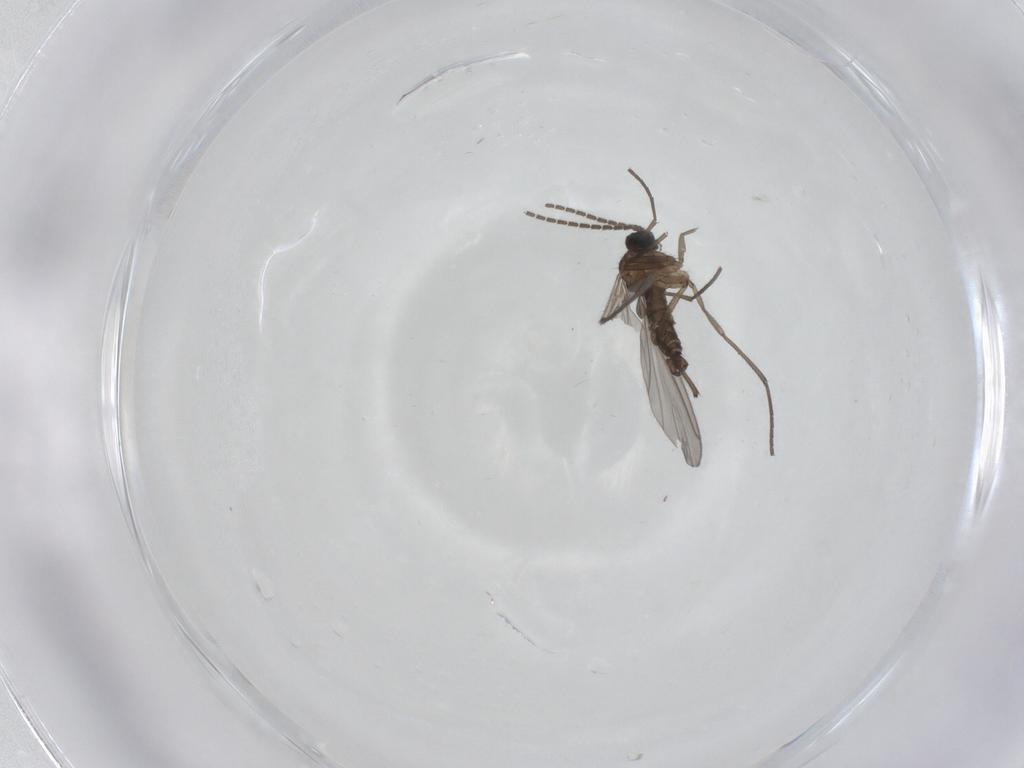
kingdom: Animalia
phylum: Arthropoda
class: Insecta
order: Diptera
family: Sciaridae
